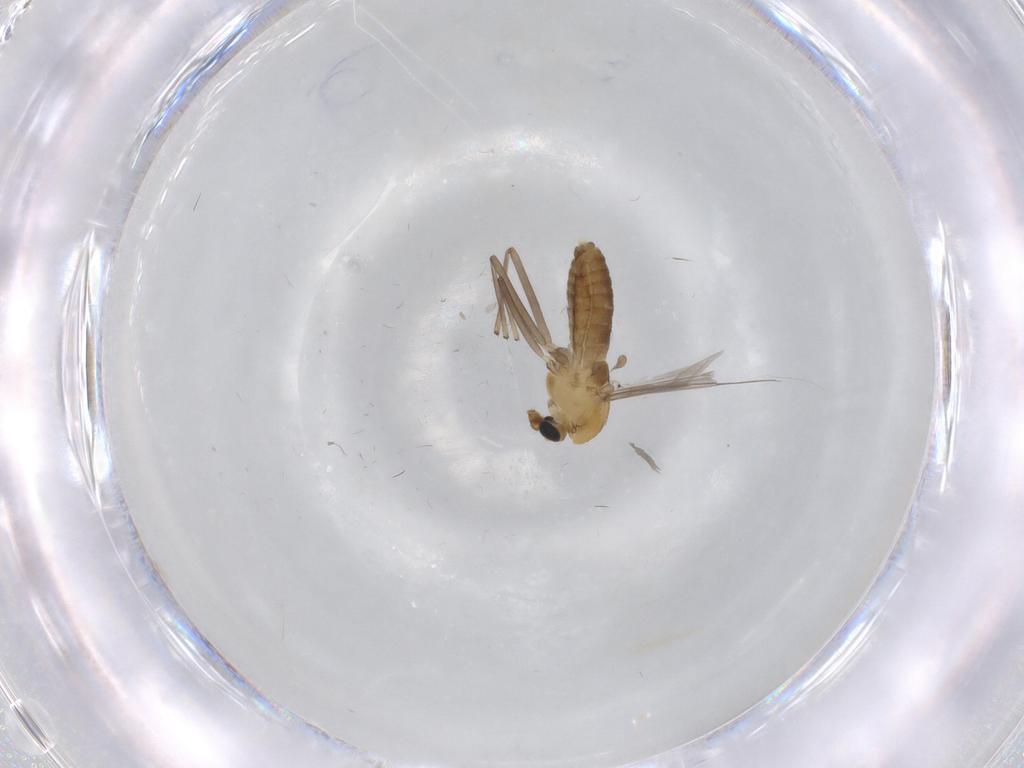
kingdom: Animalia
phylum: Arthropoda
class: Insecta
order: Diptera
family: Chironomidae
